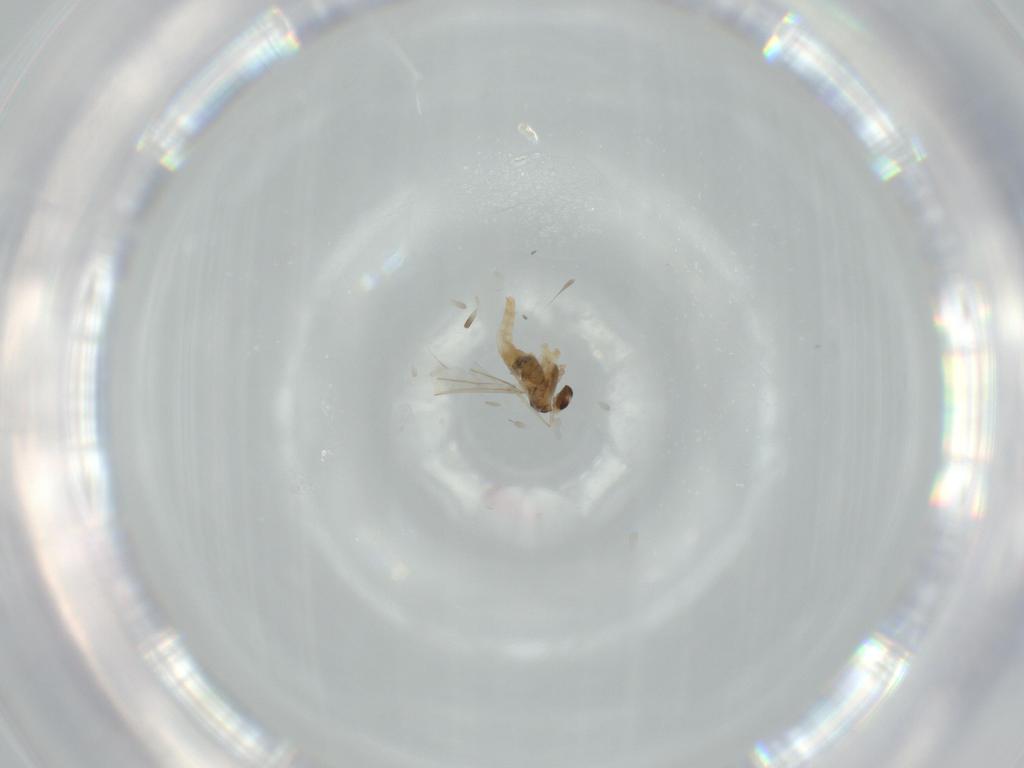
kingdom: Animalia
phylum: Arthropoda
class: Insecta
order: Diptera
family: Cecidomyiidae
